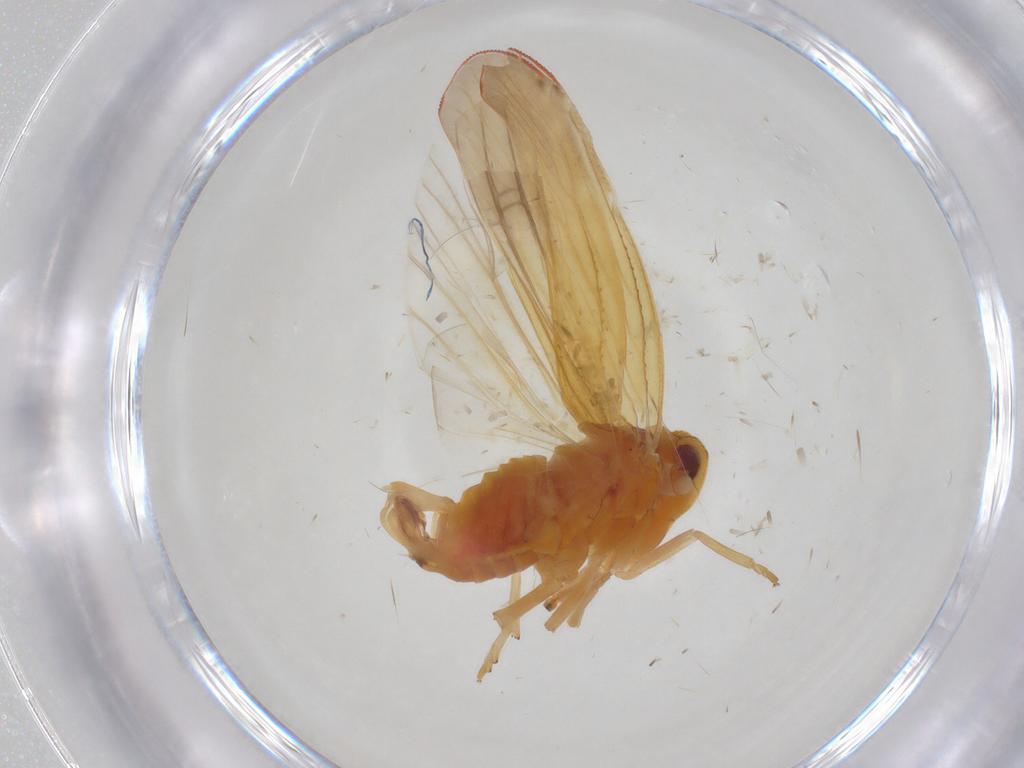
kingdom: Animalia
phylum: Arthropoda
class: Insecta
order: Hemiptera
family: Derbidae
